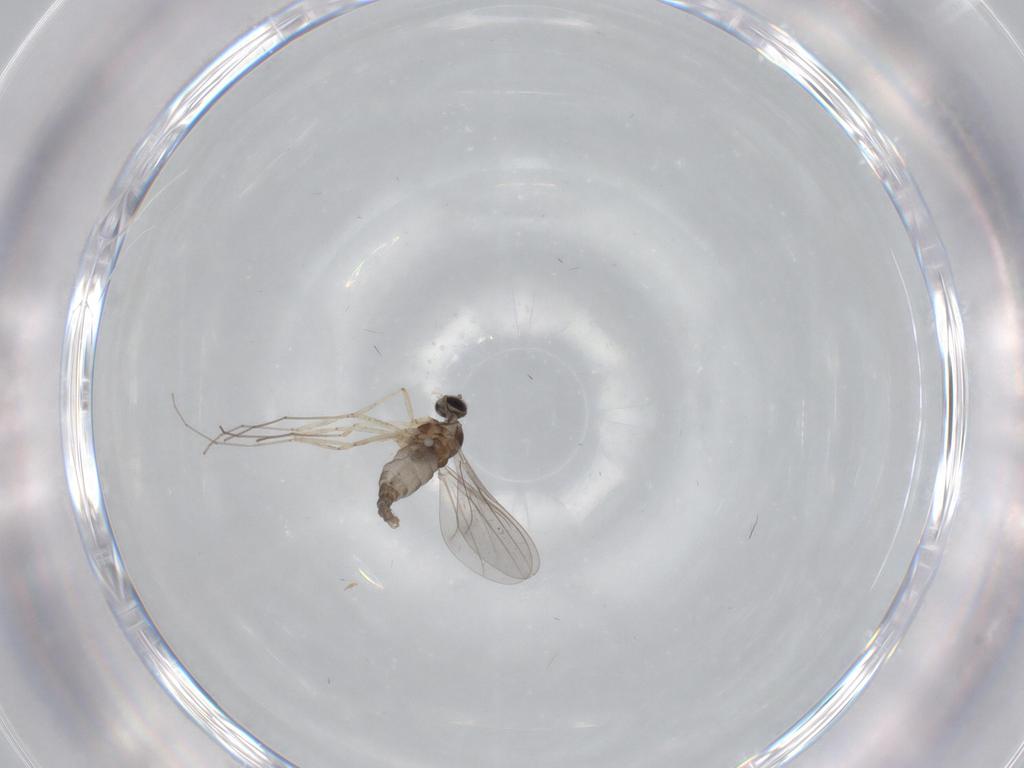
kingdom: Animalia
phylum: Arthropoda
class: Insecta
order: Diptera
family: Cecidomyiidae
